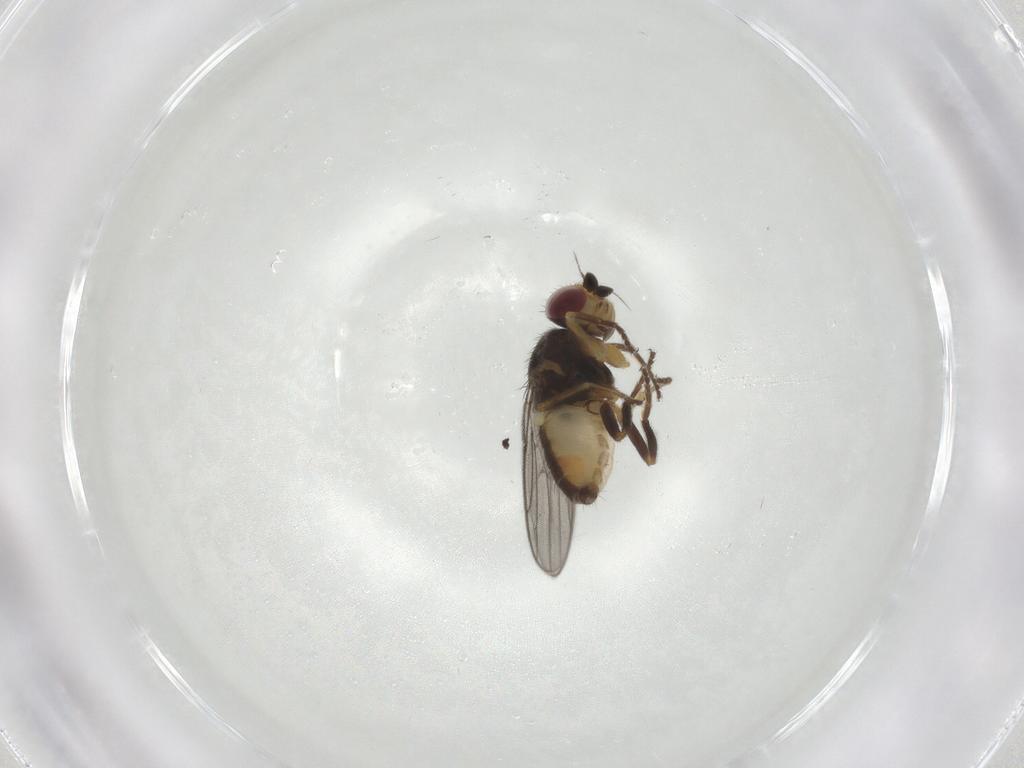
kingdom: Animalia
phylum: Arthropoda
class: Insecta
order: Diptera
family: Chloropidae
